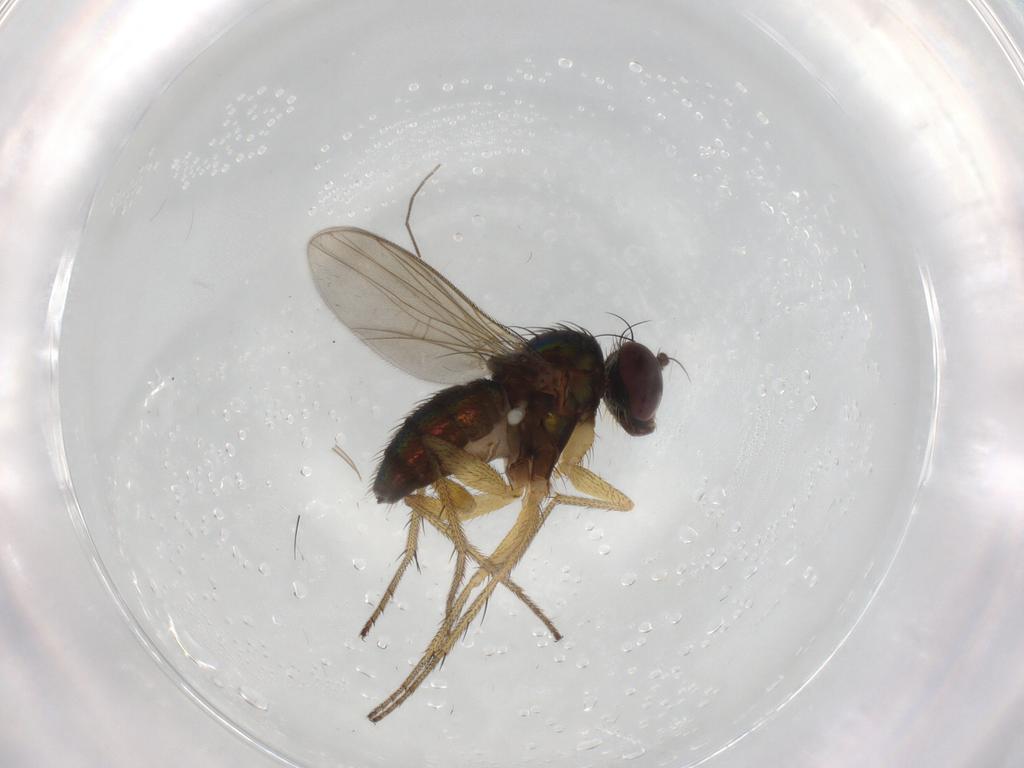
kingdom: Animalia
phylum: Arthropoda
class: Insecta
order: Diptera
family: Dolichopodidae
